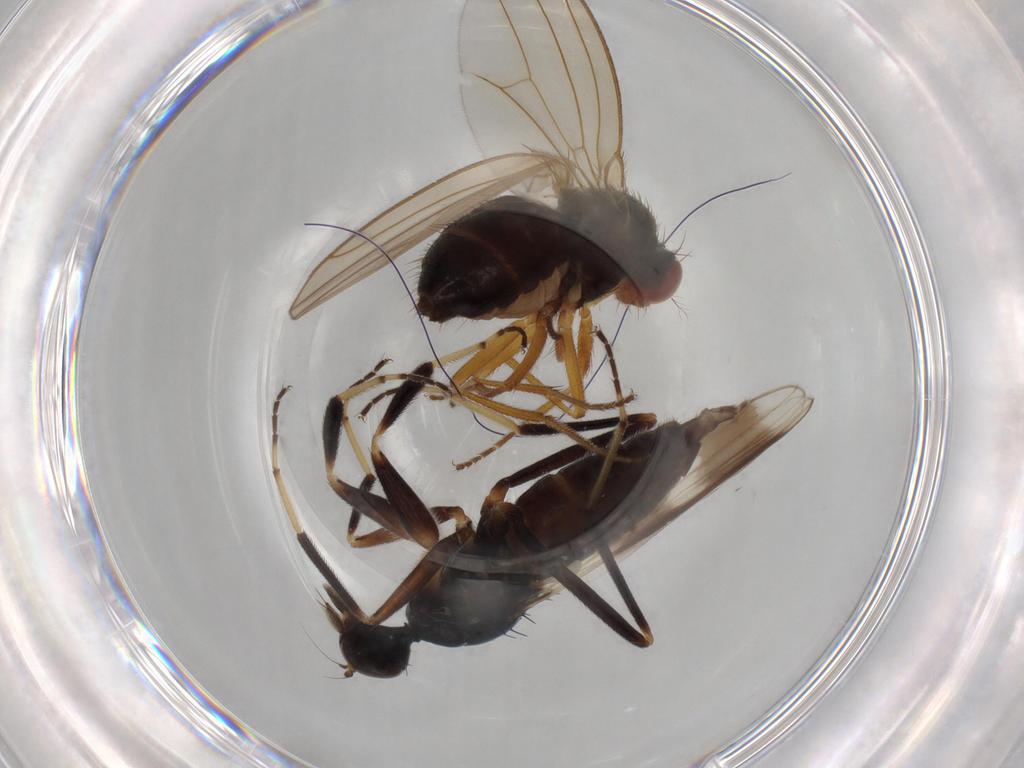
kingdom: Animalia
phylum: Arthropoda
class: Insecta
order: Diptera
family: Drosophilidae
